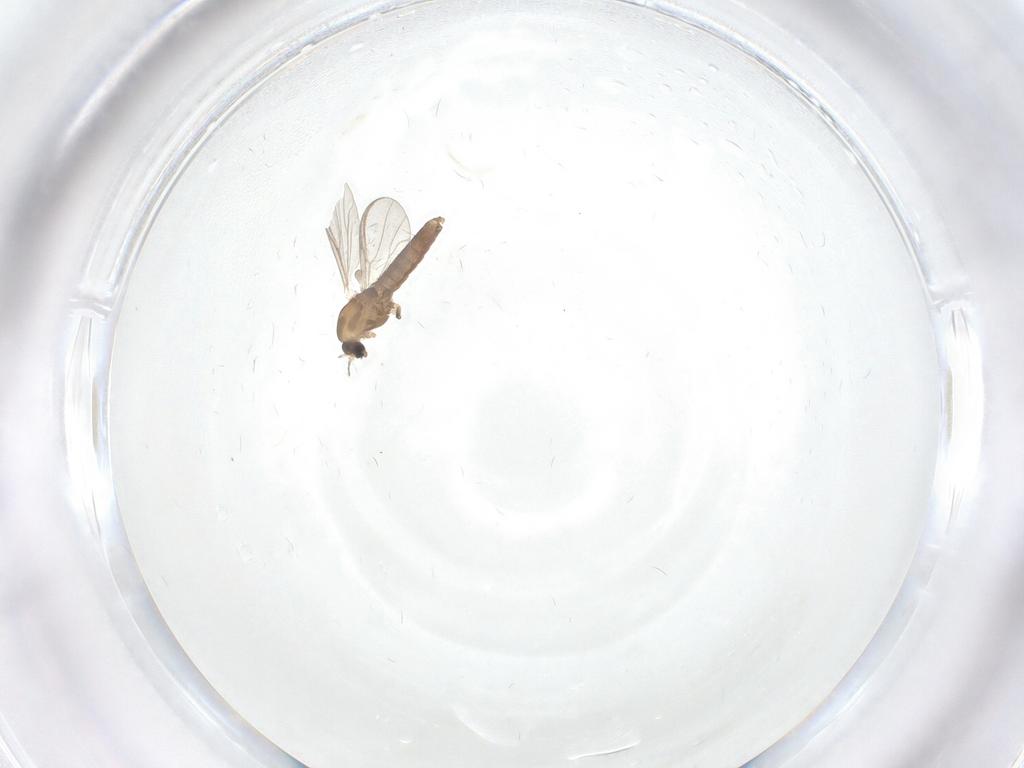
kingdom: Animalia
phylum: Arthropoda
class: Insecta
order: Diptera
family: Chironomidae
